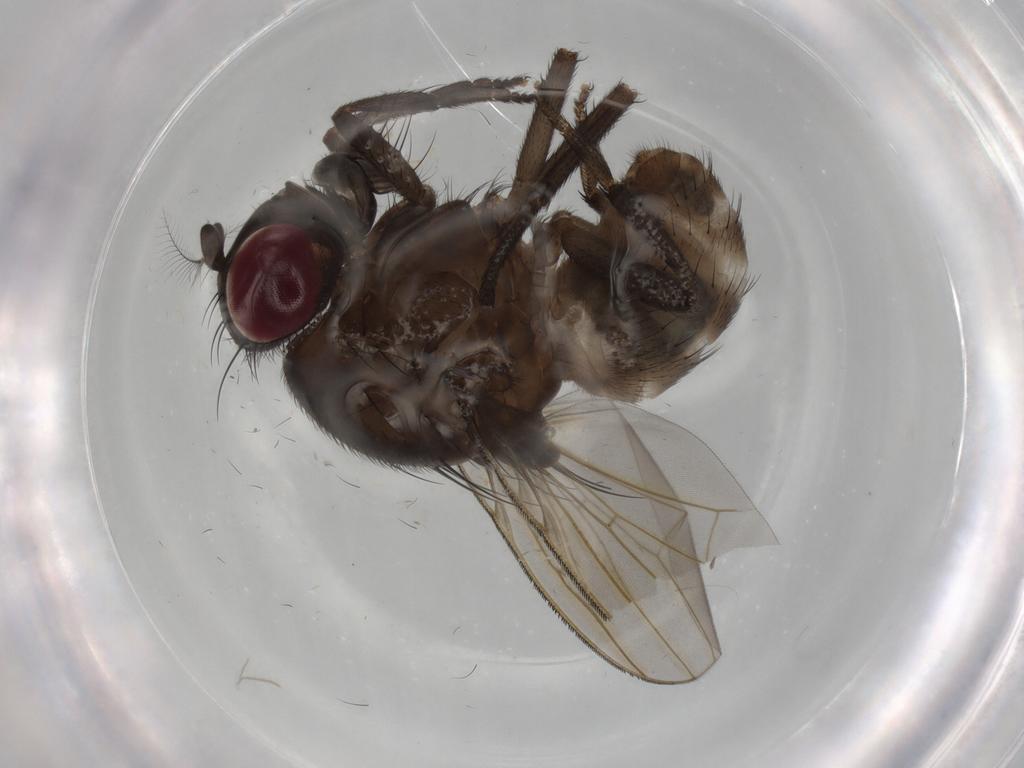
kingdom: Animalia
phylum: Arthropoda
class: Insecta
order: Diptera
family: Lauxaniidae
